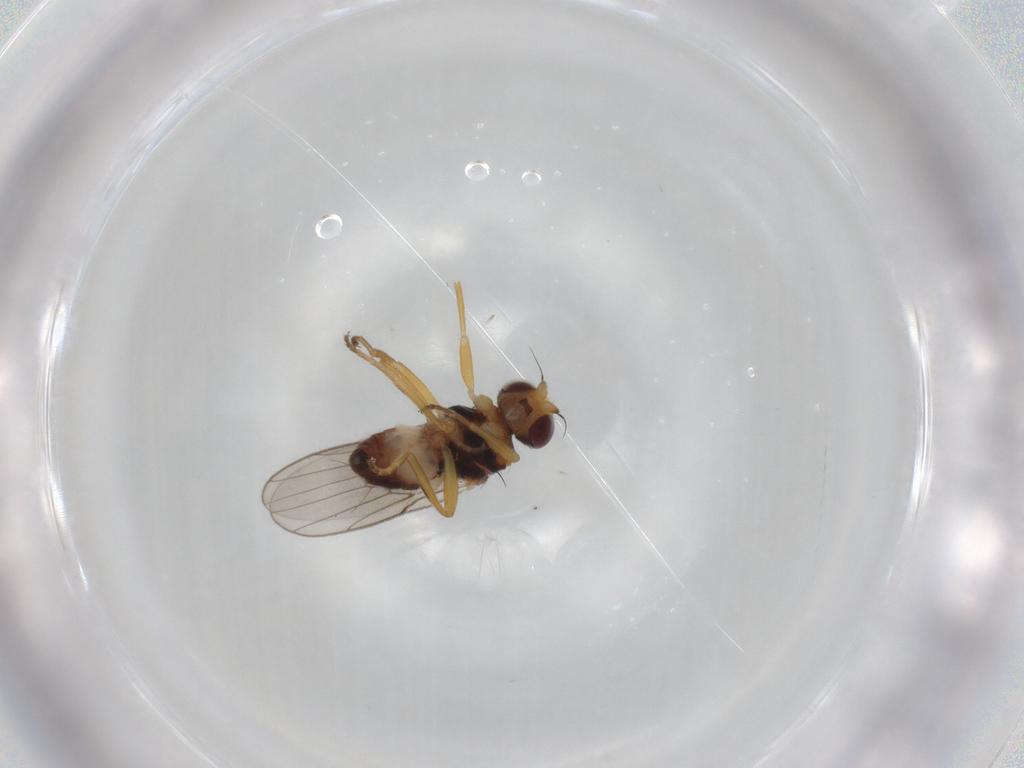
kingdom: Animalia
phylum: Arthropoda
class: Insecta
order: Diptera
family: Chloropidae
